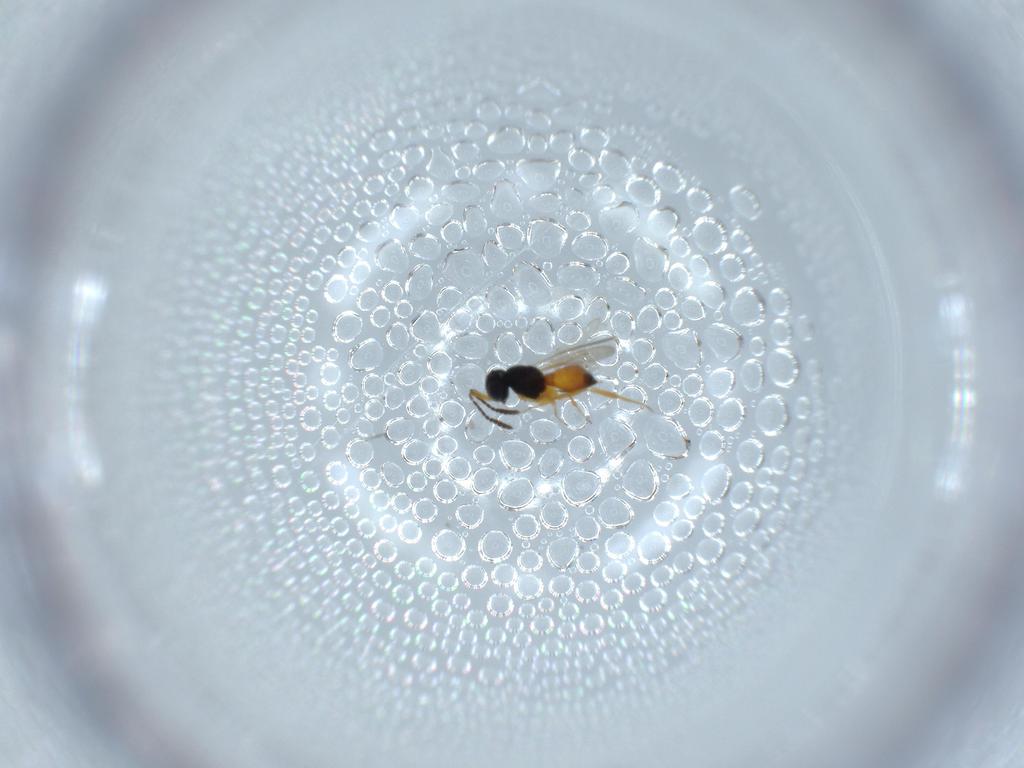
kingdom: Animalia
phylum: Arthropoda
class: Insecta
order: Hymenoptera
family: Scelionidae
